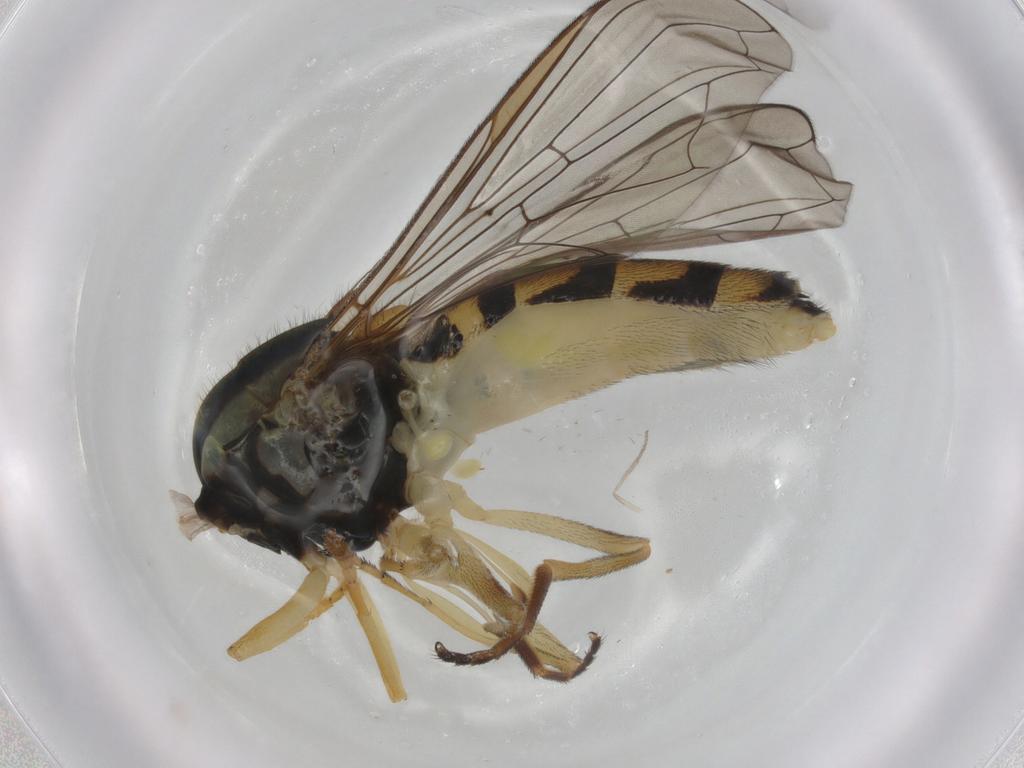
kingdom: Animalia
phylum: Arthropoda
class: Insecta
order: Diptera
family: Syrphidae
